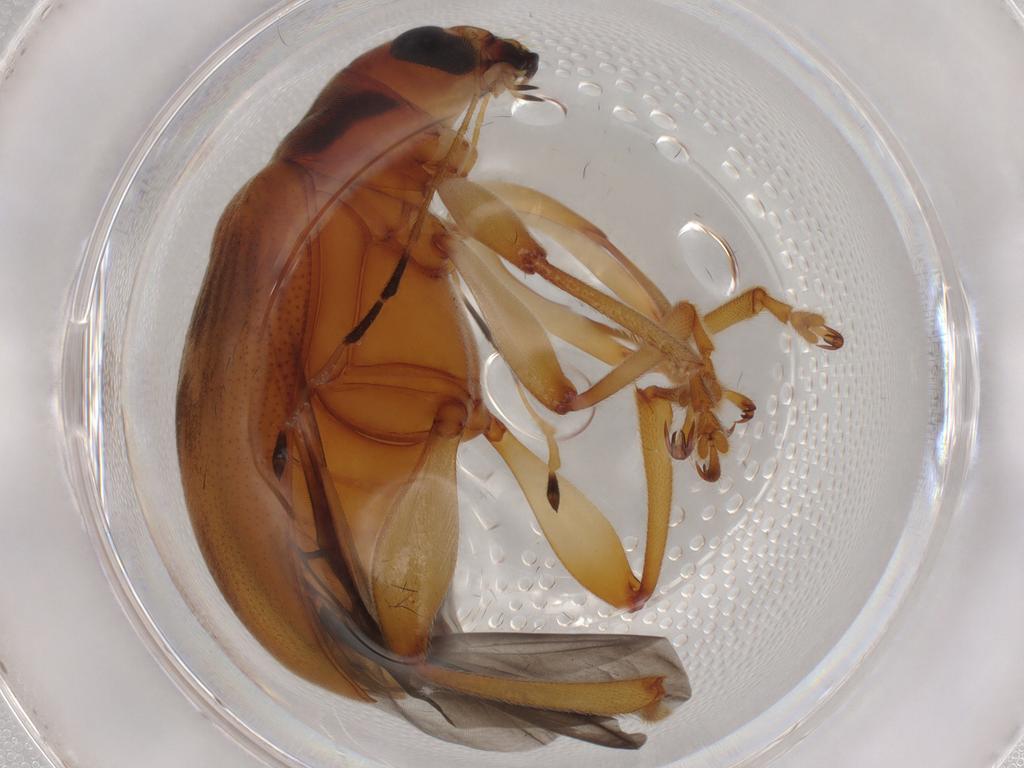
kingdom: Animalia
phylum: Arthropoda
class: Insecta
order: Coleoptera
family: Chrysomelidae
